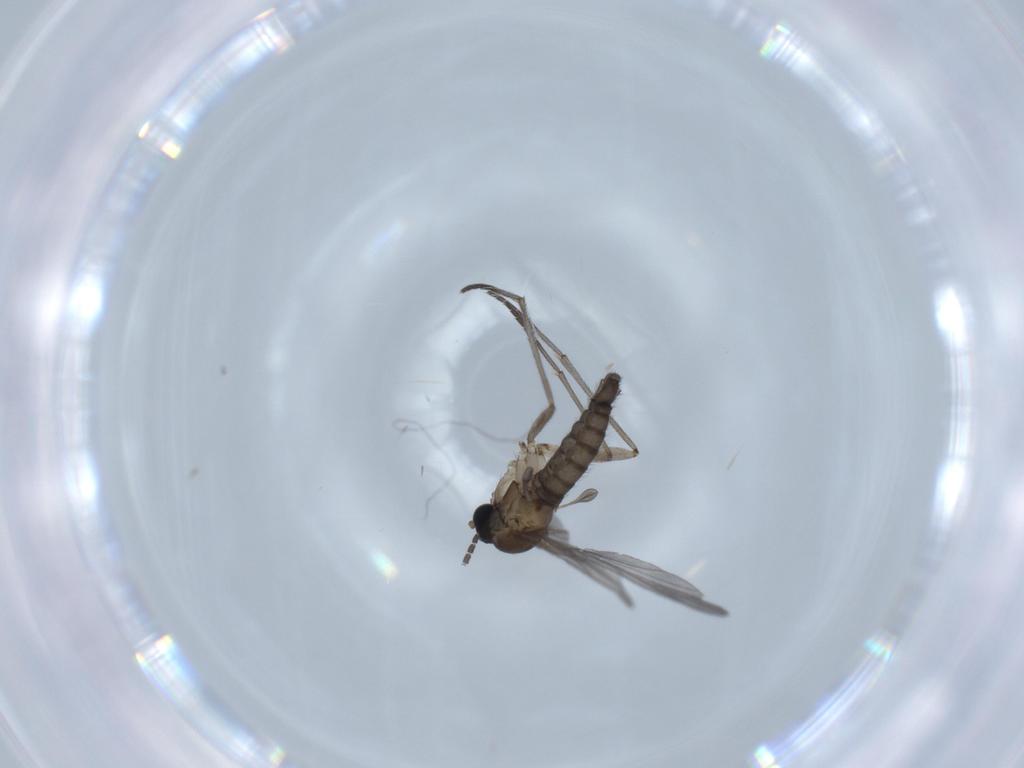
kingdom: Animalia
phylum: Arthropoda
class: Insecta
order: Diptera
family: Sciaridae
